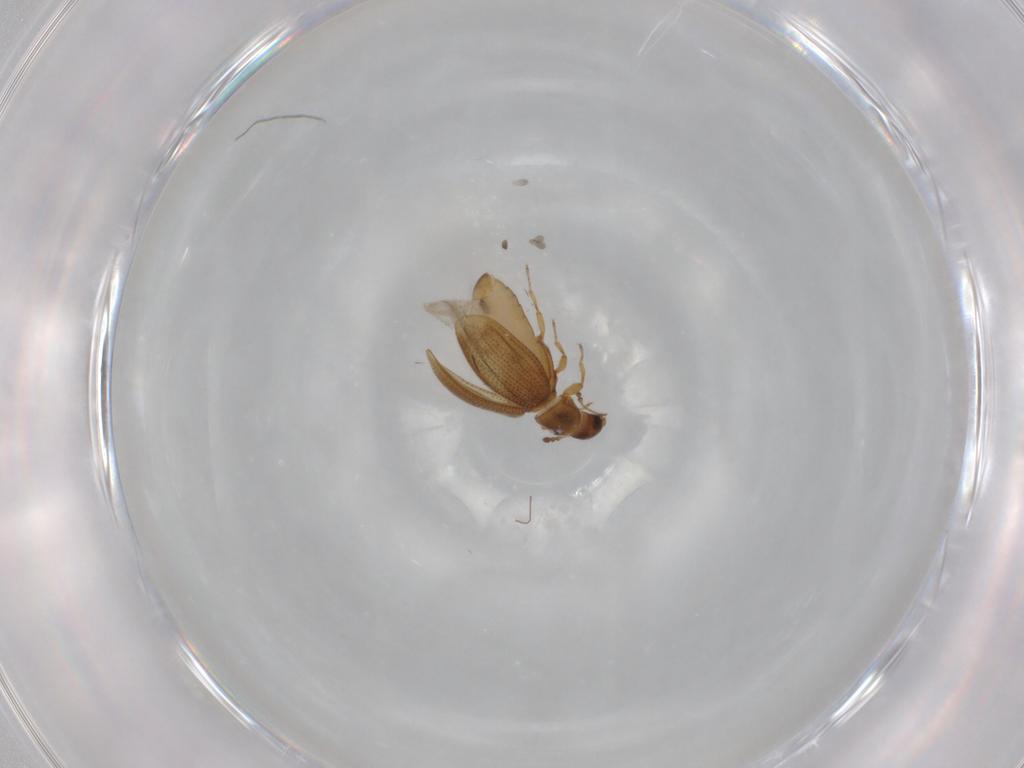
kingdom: Animalia
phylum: Arthropoda
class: Insecta
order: Coleoptera
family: Latridiidae
